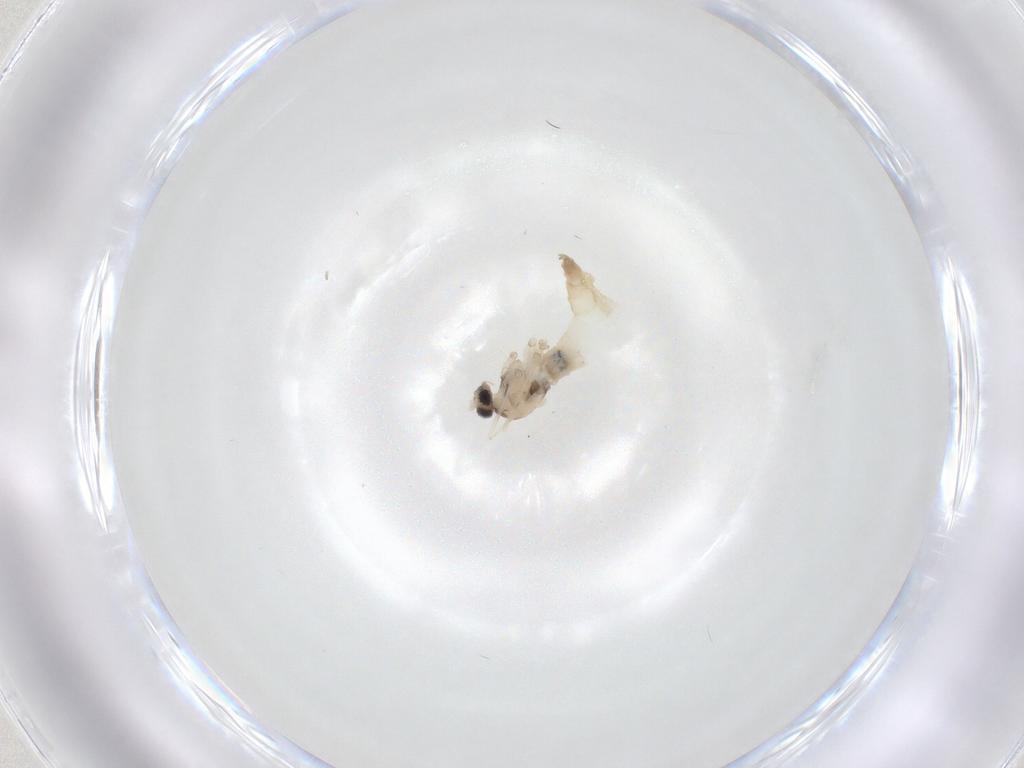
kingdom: Animalia
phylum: Arthropoda
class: Insecta
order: Diptera
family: Cecidomyiidae
